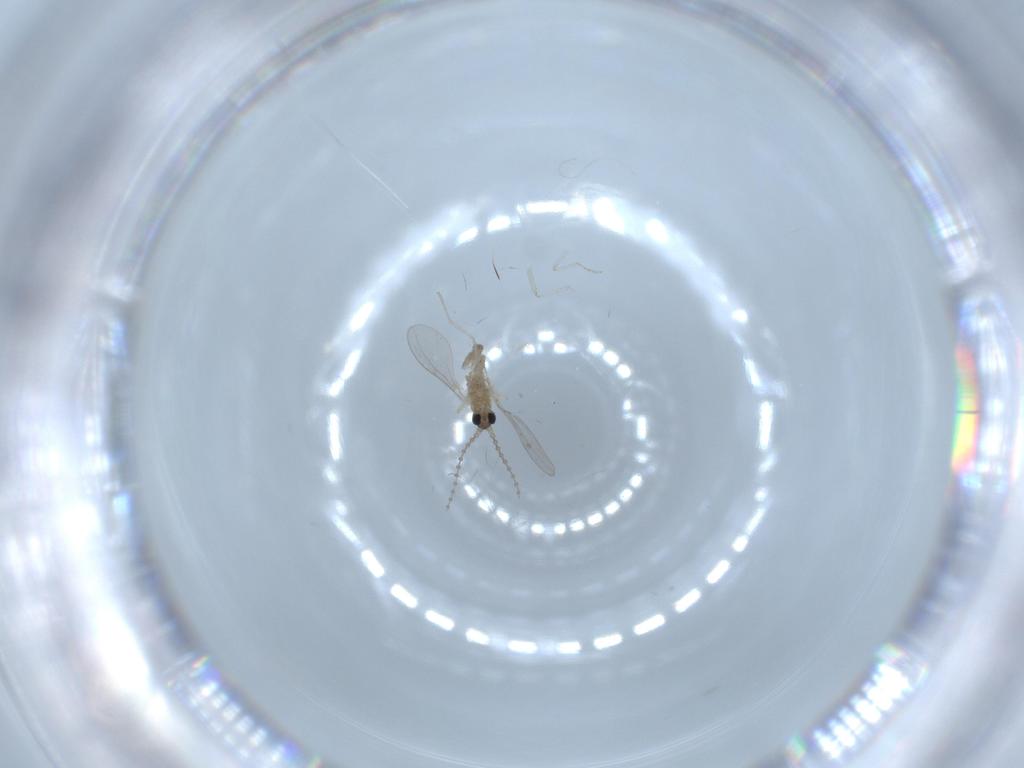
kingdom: Animalia
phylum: Arthropoda
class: Insecta
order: Diptera
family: Cecidomyiidae
